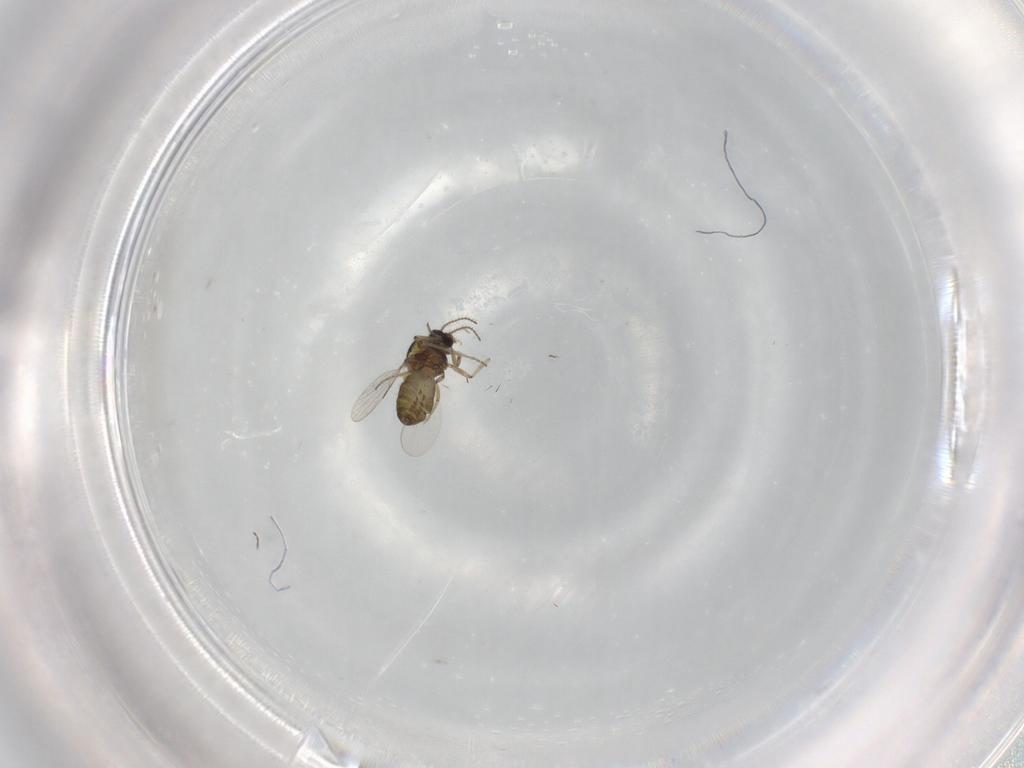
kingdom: Animalia
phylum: Arthropoda
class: Insecta
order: Diptera
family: Ceratopogonidae
